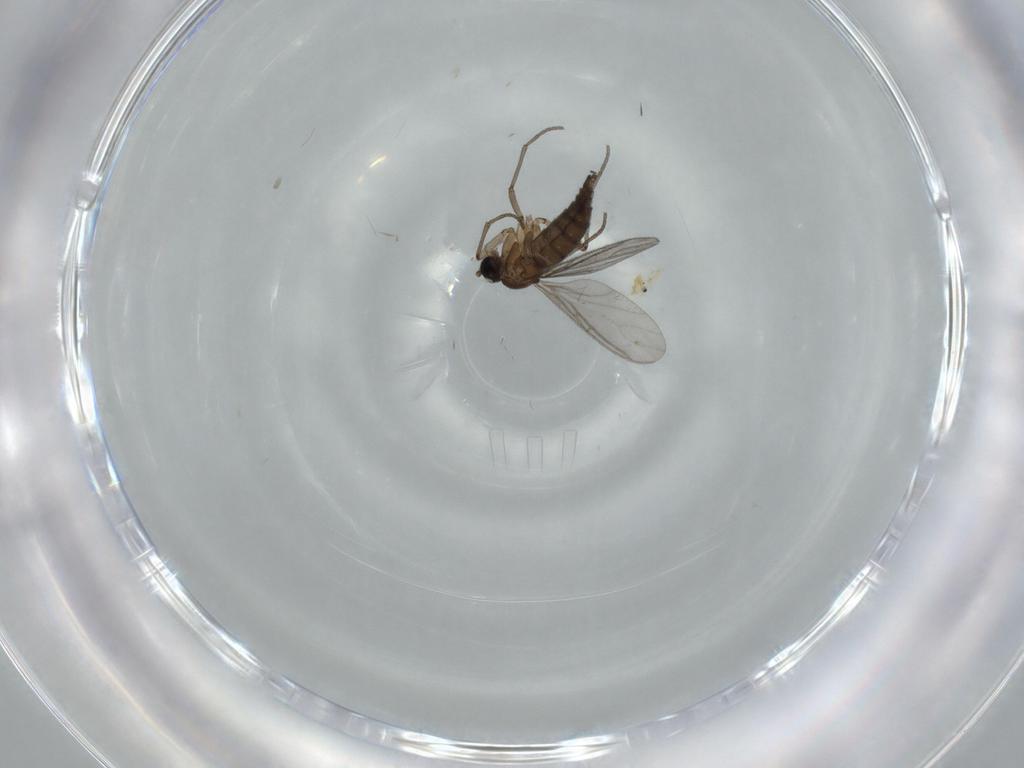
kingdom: Animalia
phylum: Arthropoda
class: Insecta
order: Diptera
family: Sciaridae
